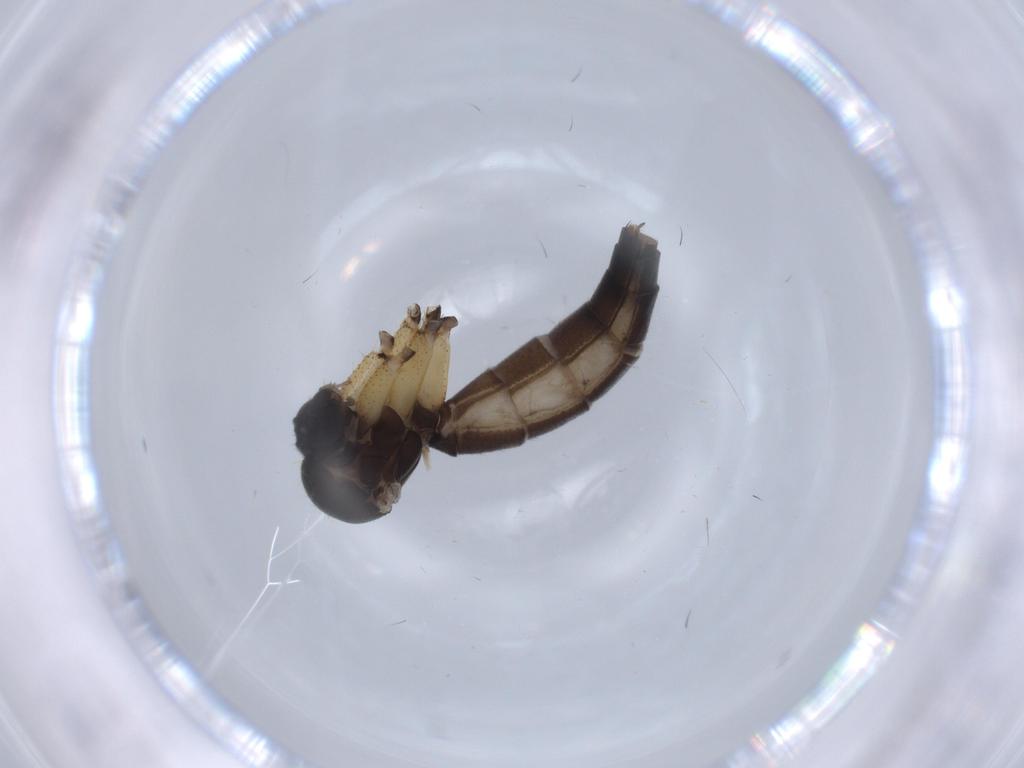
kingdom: Animalia
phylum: Arthropoda
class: Insecta
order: Diptera
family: Mycetophilidae
